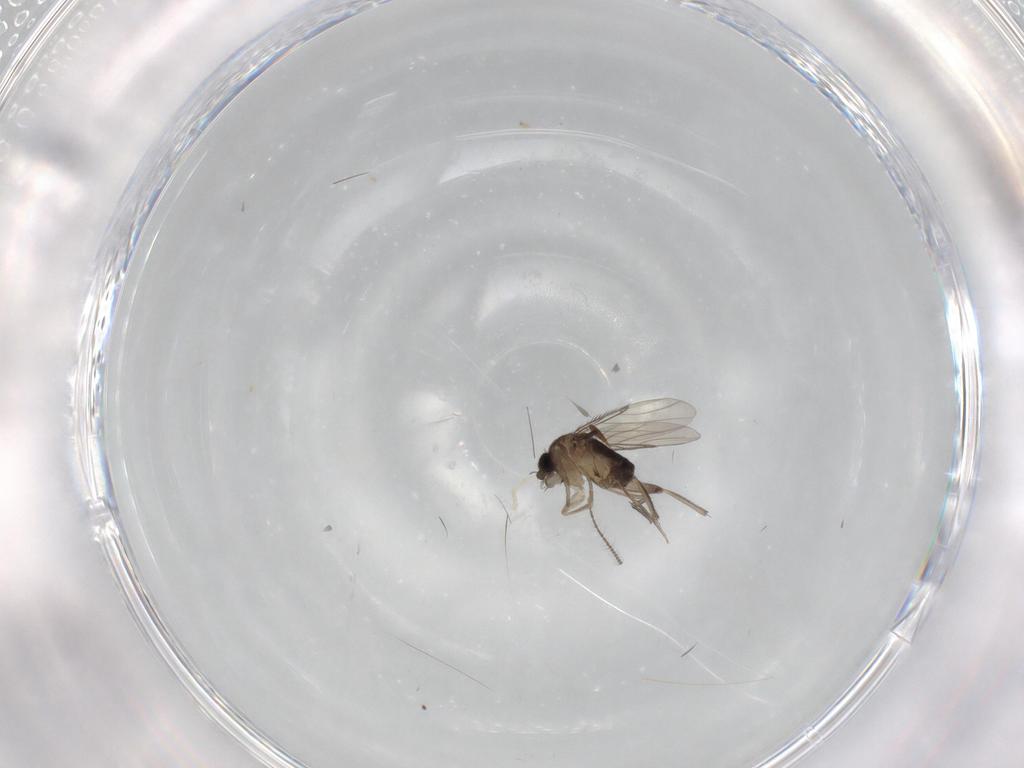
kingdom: Animalia
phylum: Arthropoda
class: Insecta
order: Diptera
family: Phoridae
